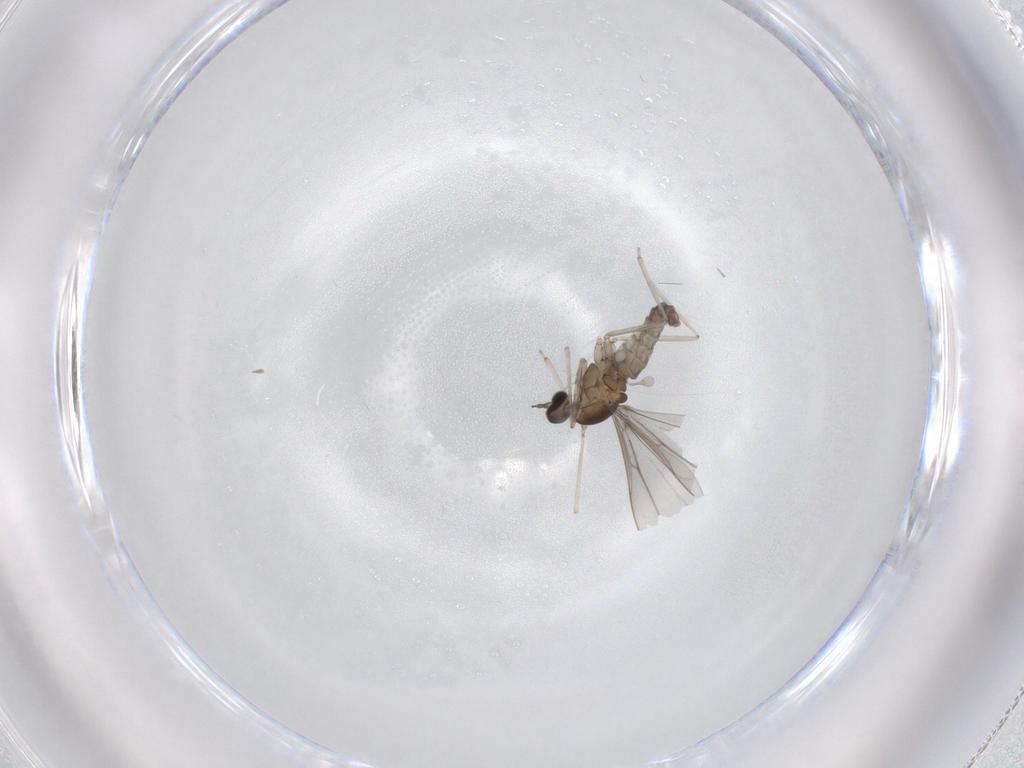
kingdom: Animalia
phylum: Arthropoda
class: Insecta
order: Diptera
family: Cecidomyiidae
